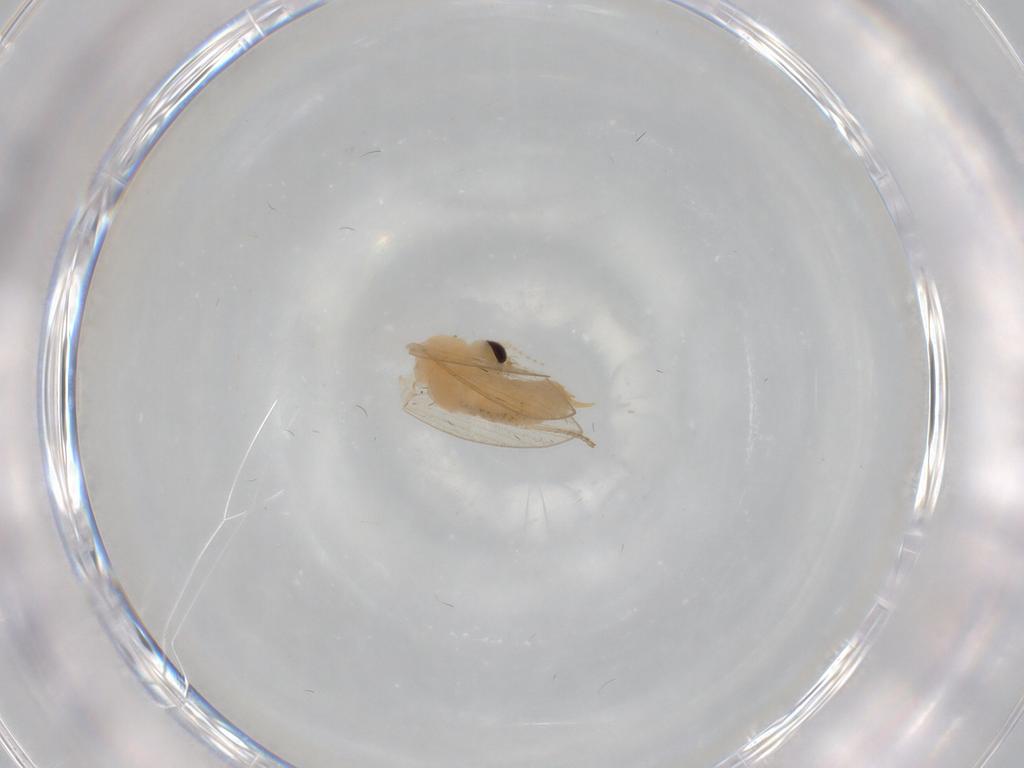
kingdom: Animalia
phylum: Arthropoda
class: Insecta
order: Diptera
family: Psychodidae
